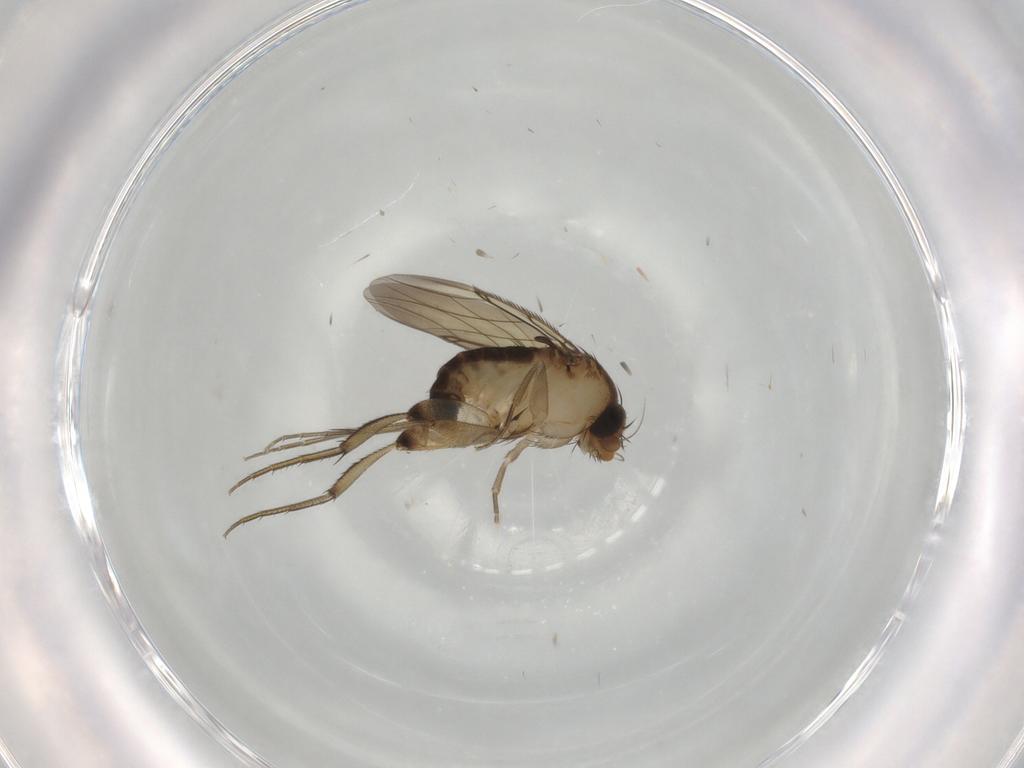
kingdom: Animalia
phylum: Arthropoda
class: Insecta
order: Diptera
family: Phoridae
